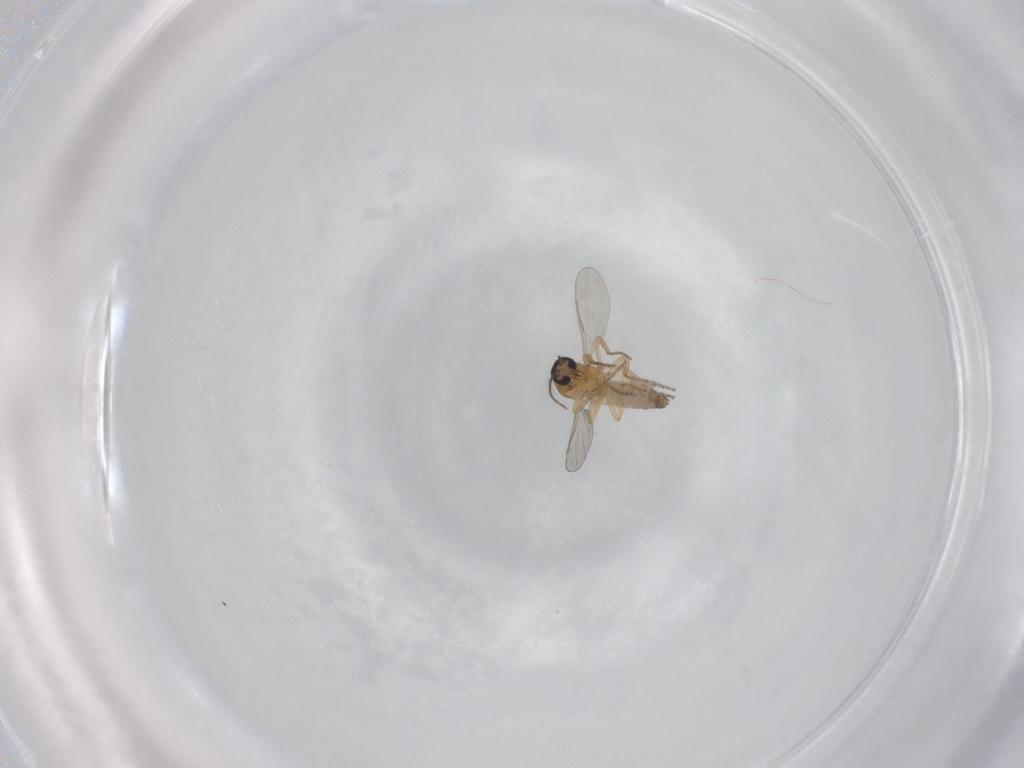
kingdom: Animalia
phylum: Arthropoda
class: Insecta
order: Diptera
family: Ceratopogonidae
